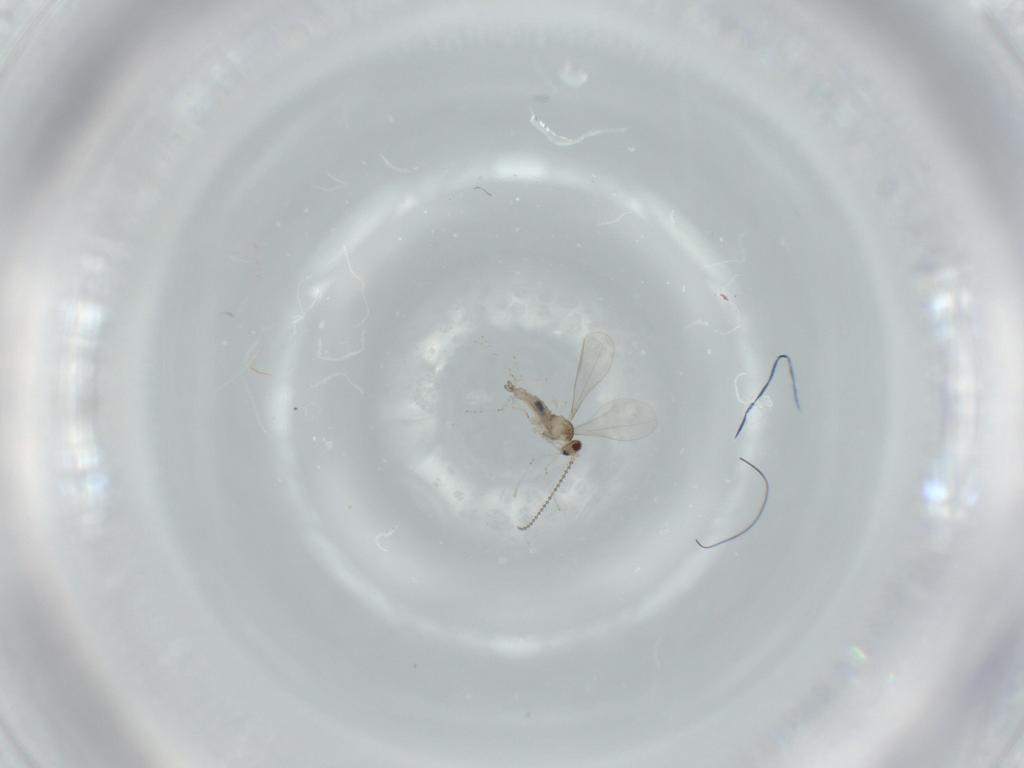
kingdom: Animalia
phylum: Arthropoda
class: Insecta
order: Diptera
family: Cecidomyiidae
